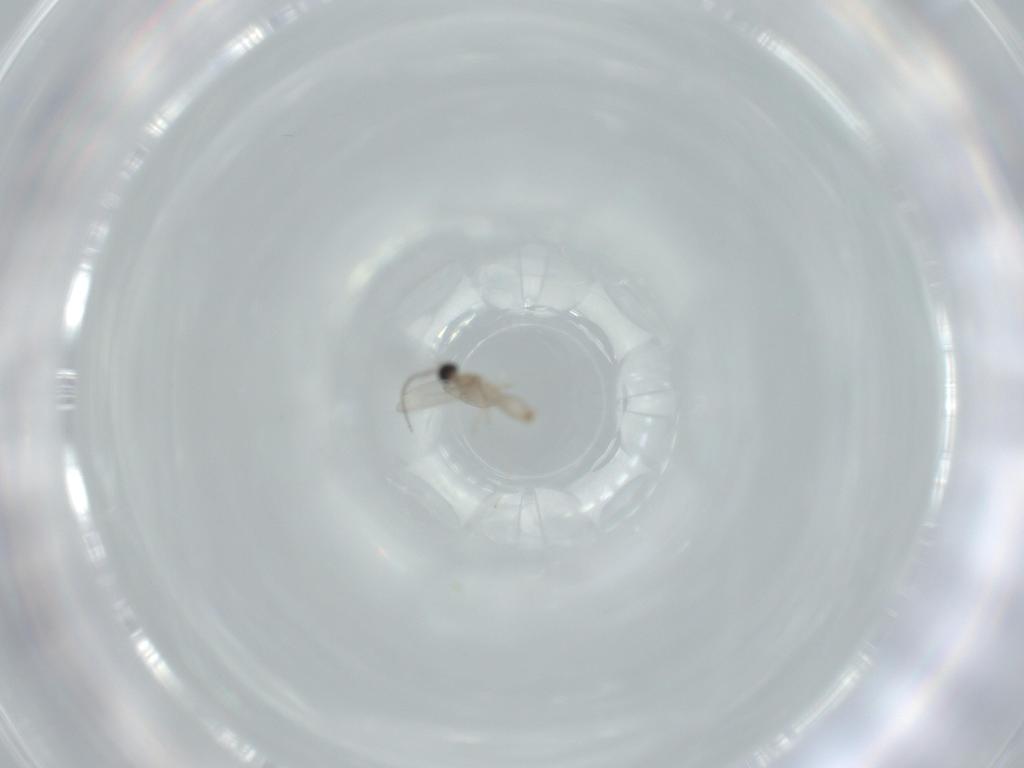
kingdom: Animalia
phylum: Arthropoda
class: Insecta
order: Diptera
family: Cecidomyiidae
